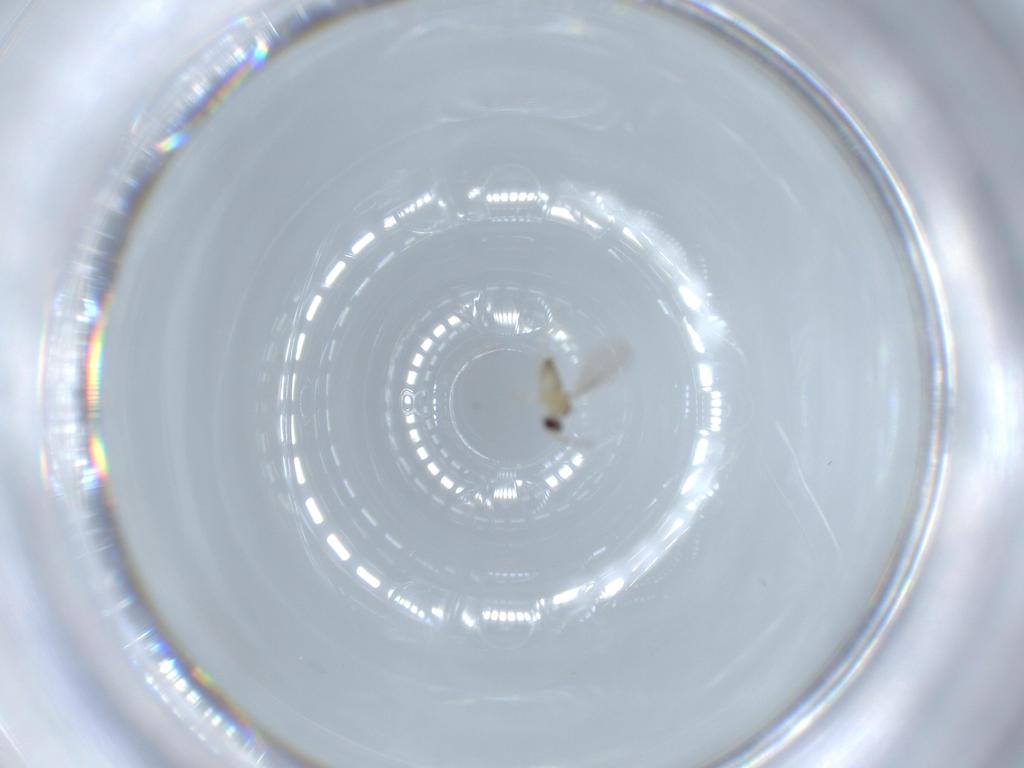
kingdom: Animalia
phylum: Arthropoda
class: Insecta
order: Diptera
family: Cecidomyiidae
